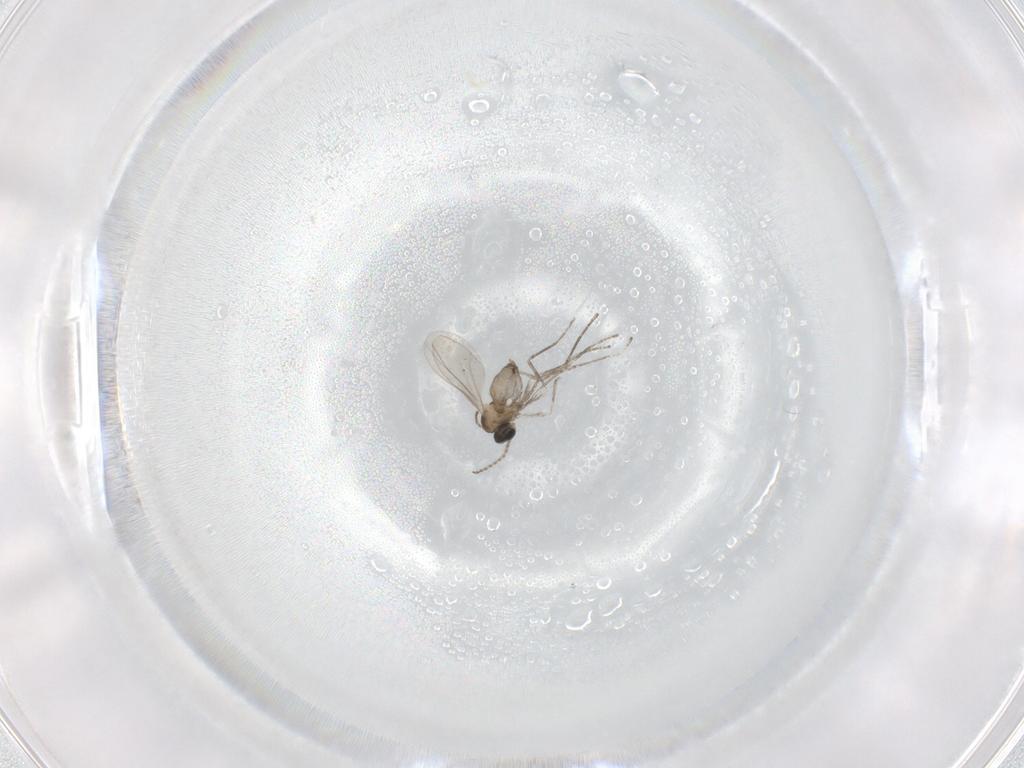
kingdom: Animalia
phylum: Arthropoda
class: Insecta
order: Diptera
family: Cecidomyiidae
